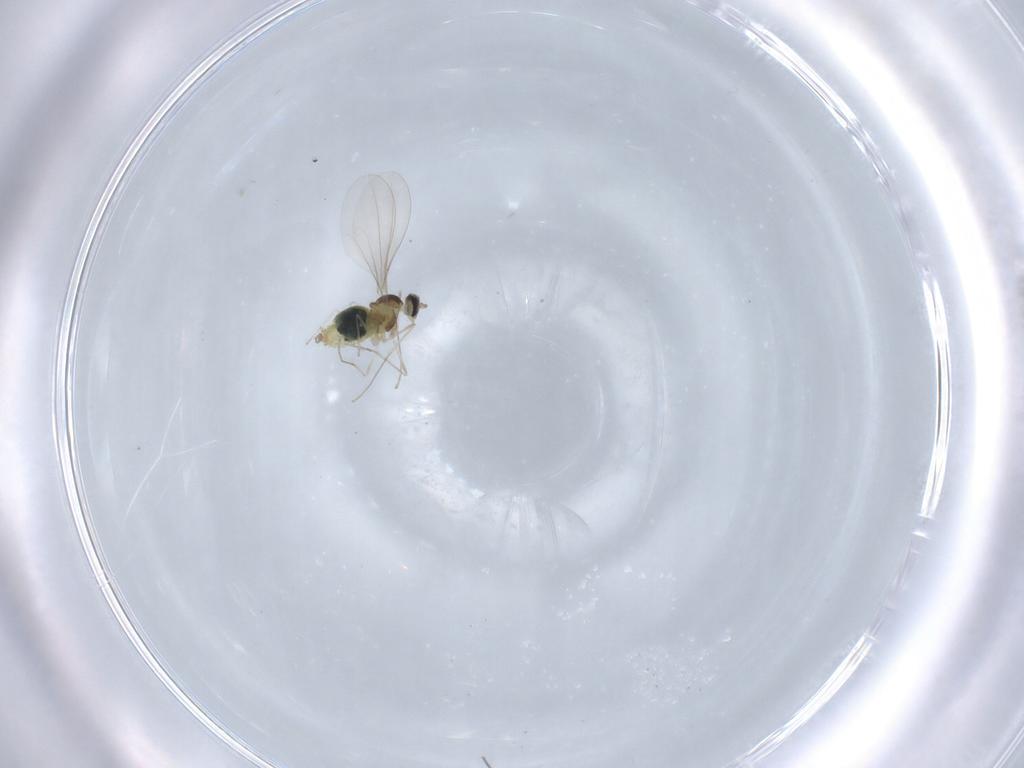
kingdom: Animalia
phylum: Arthropoda
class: Insecta
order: Diptera
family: Cecidomyiidae
